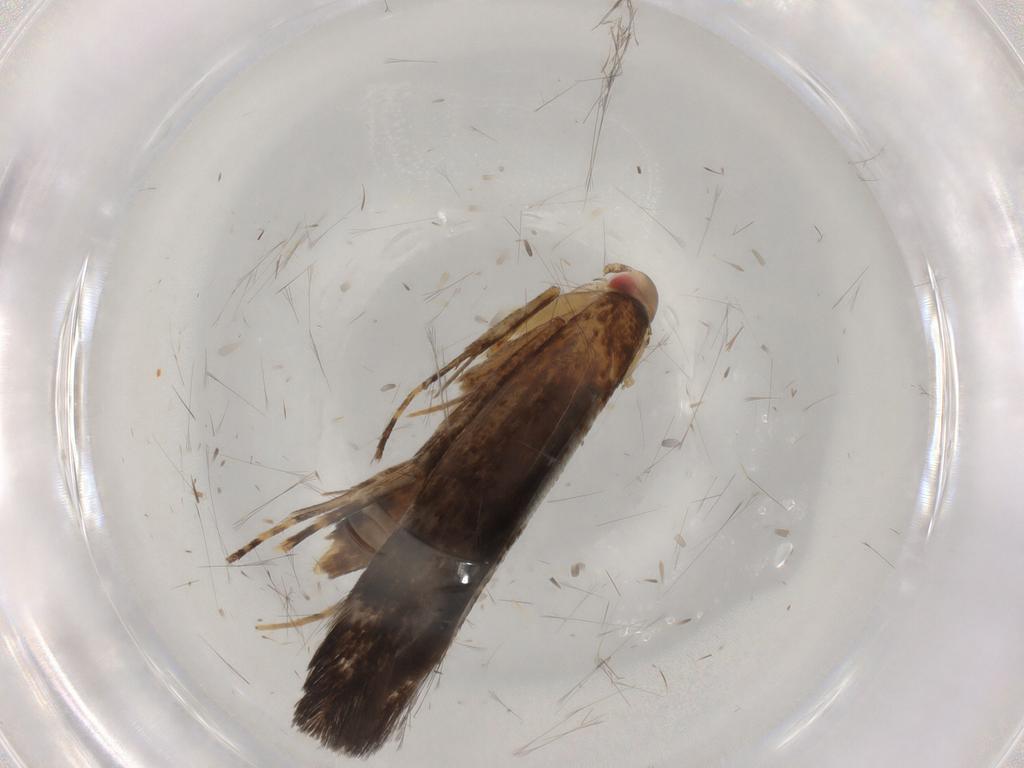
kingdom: Animalia
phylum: Arthropoda
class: Insecta
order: Lepidoptera
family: Cosmopterigidae
